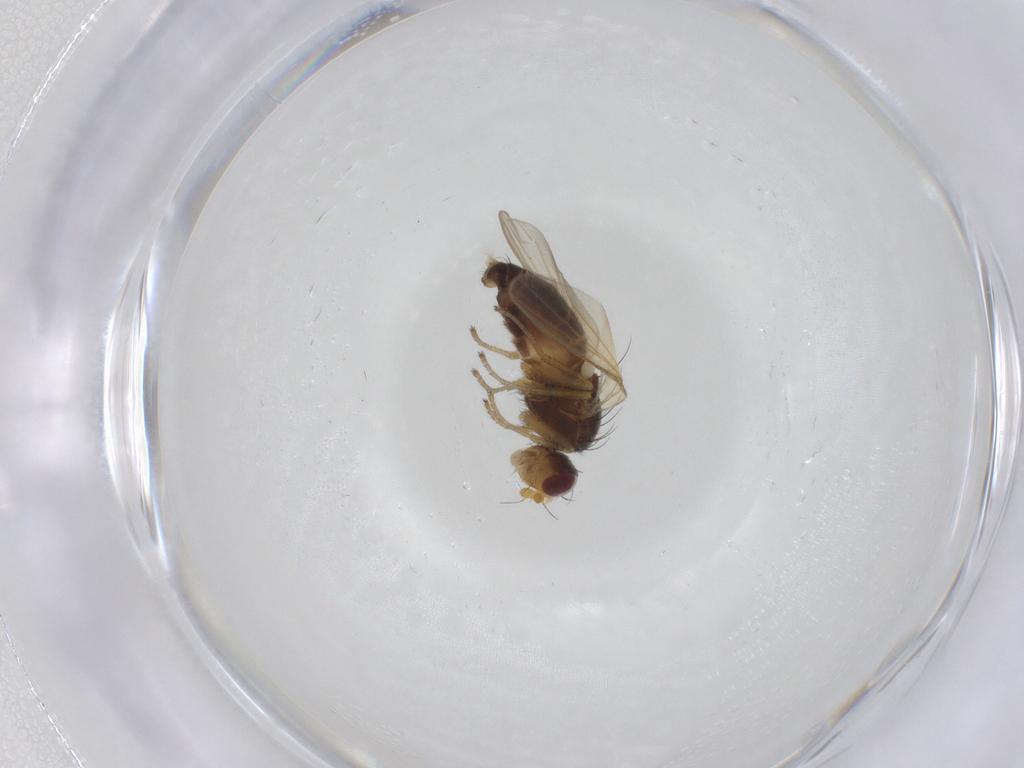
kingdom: Animalia
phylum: Arthropoda
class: Insecta
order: Diptera
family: Heleomyzidae
